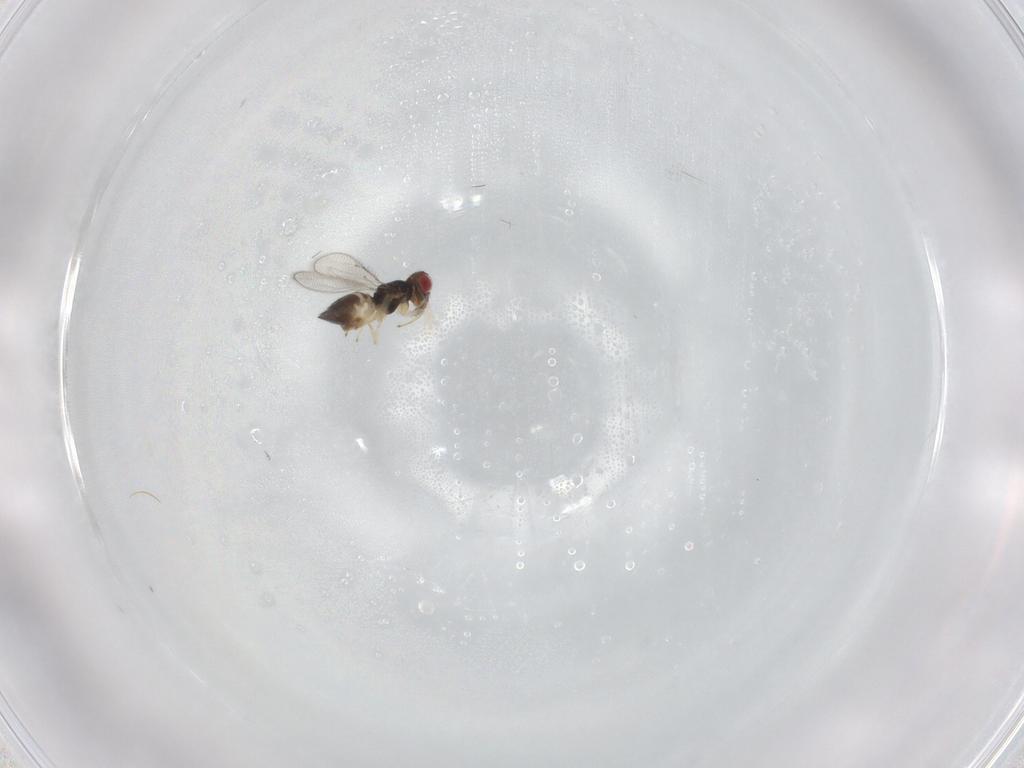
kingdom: Animalia
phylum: Arthropoda
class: Insecta
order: Hymenoptera
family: Eulophidae
